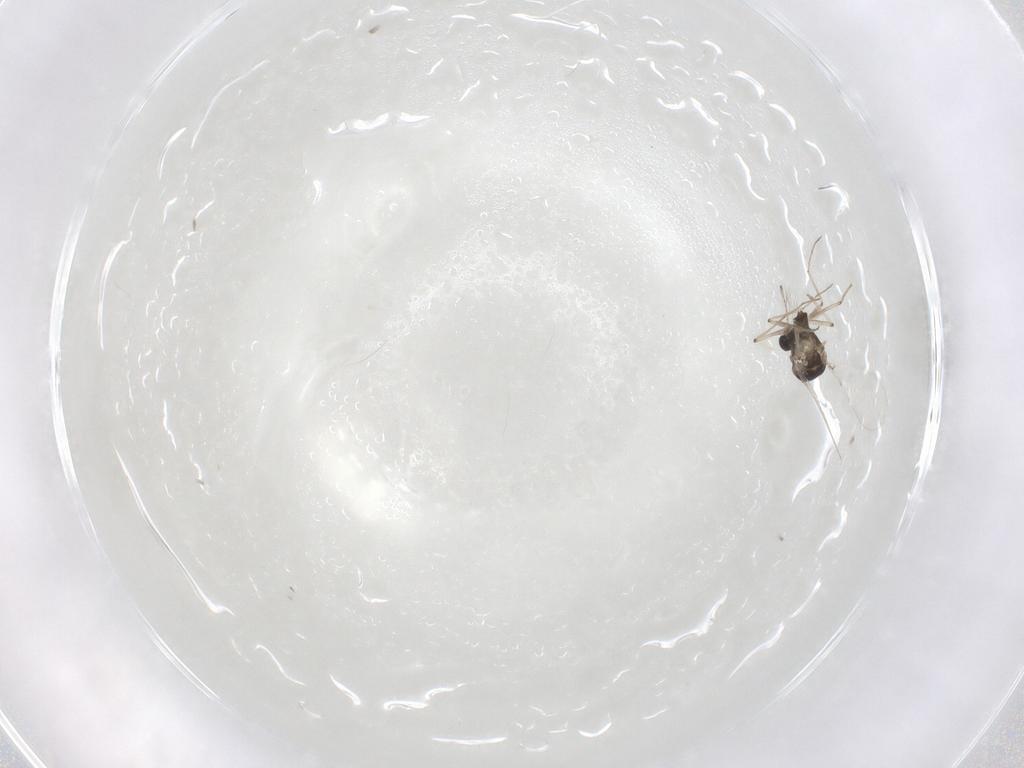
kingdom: Animalia
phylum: Arthropoda
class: Insecta
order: Diptera
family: Chironomidae
